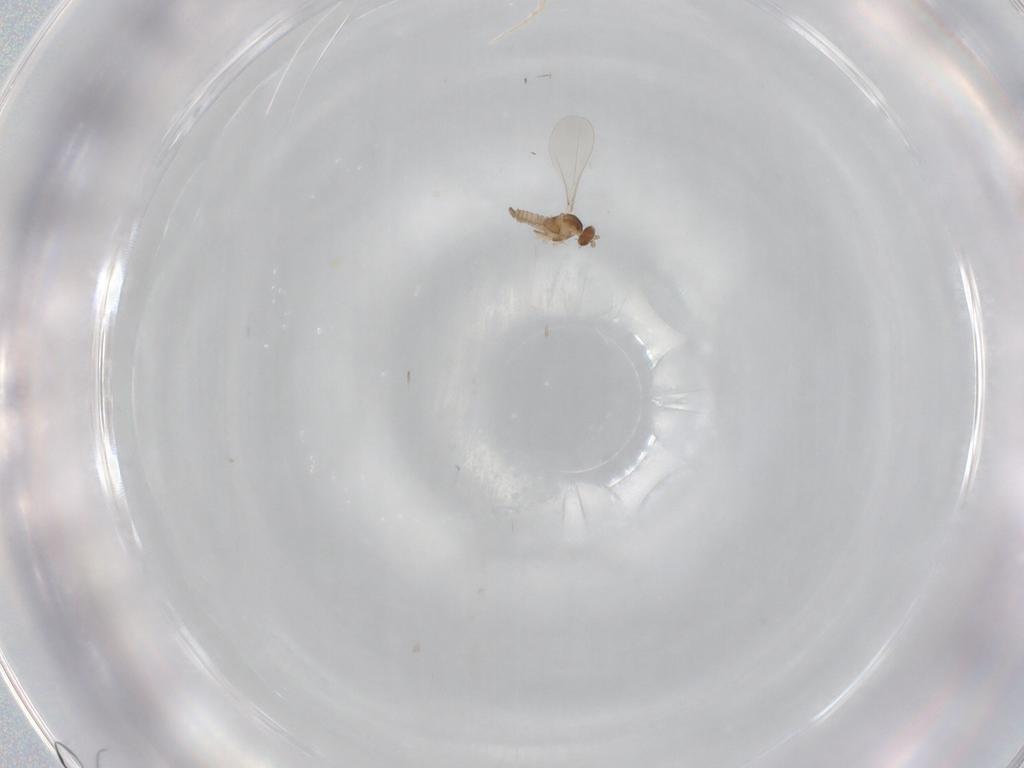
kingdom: Animalia
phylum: Arthropoda
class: Insecta
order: Diptera
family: Cecidomyiidae
